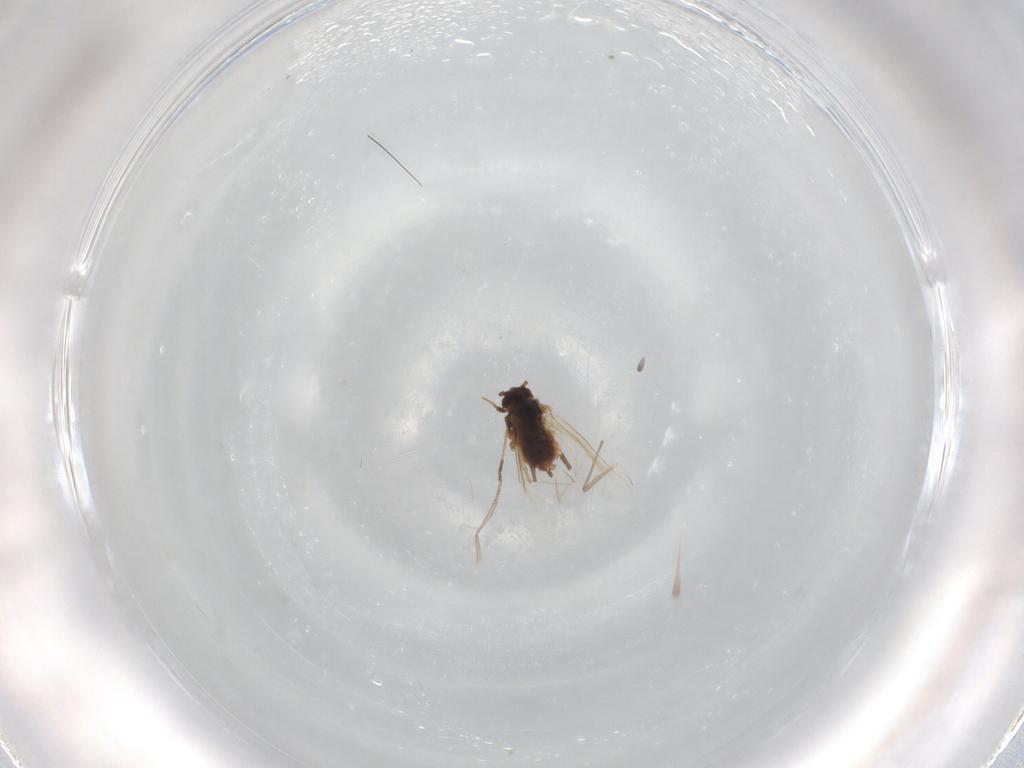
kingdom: Animalia
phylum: Arthropoda
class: Insecta
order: Hemiptera
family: Aphididae
